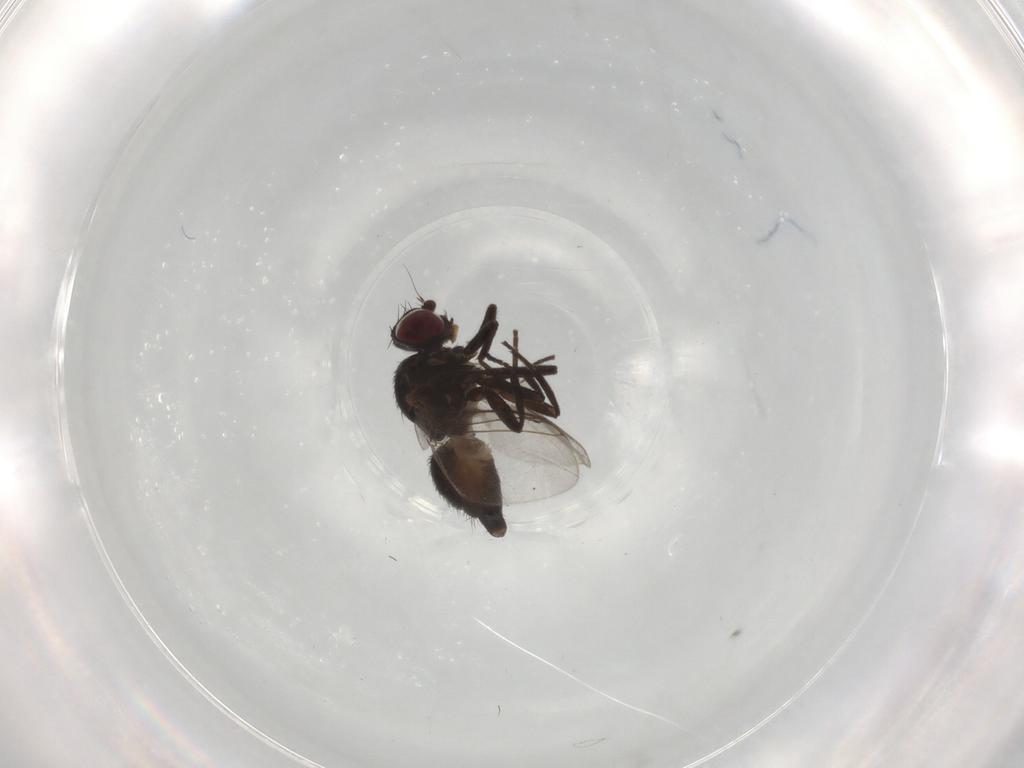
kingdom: Animalia
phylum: Arthropoda
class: Insecta
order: Diptera
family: Agromyzidae
